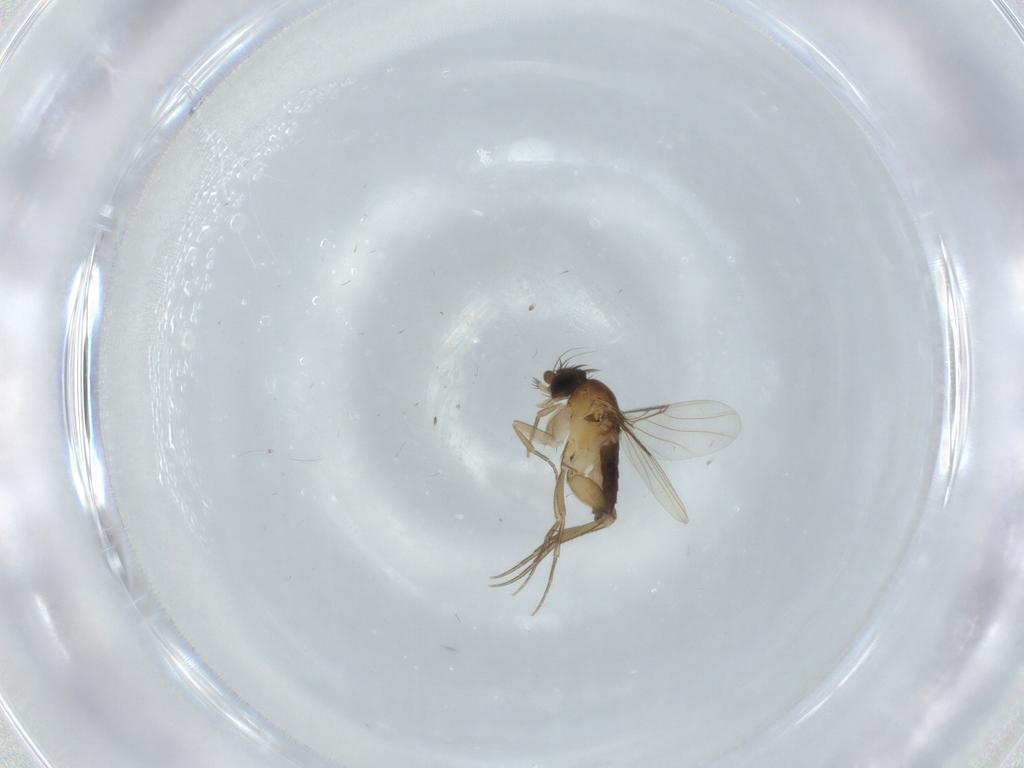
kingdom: Animalia
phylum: Arthropoda
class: Insecta
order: Diptera
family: Phoridae
